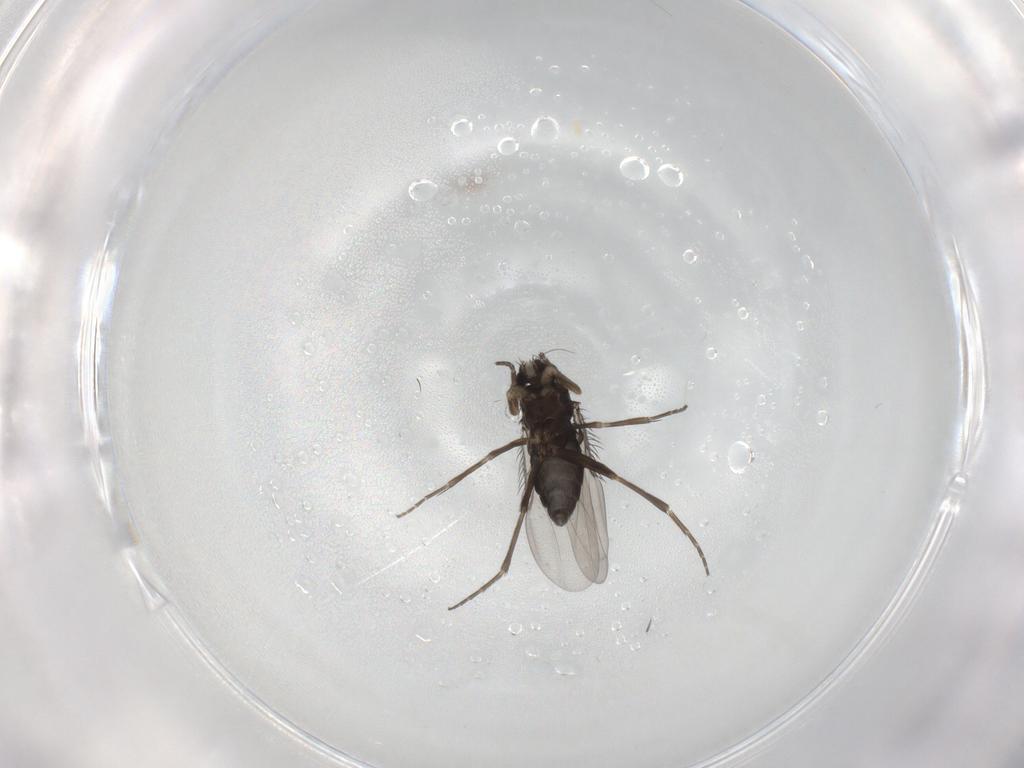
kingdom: Animalia
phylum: Arthropoda
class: Insecta
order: Diptera
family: Phoridae
